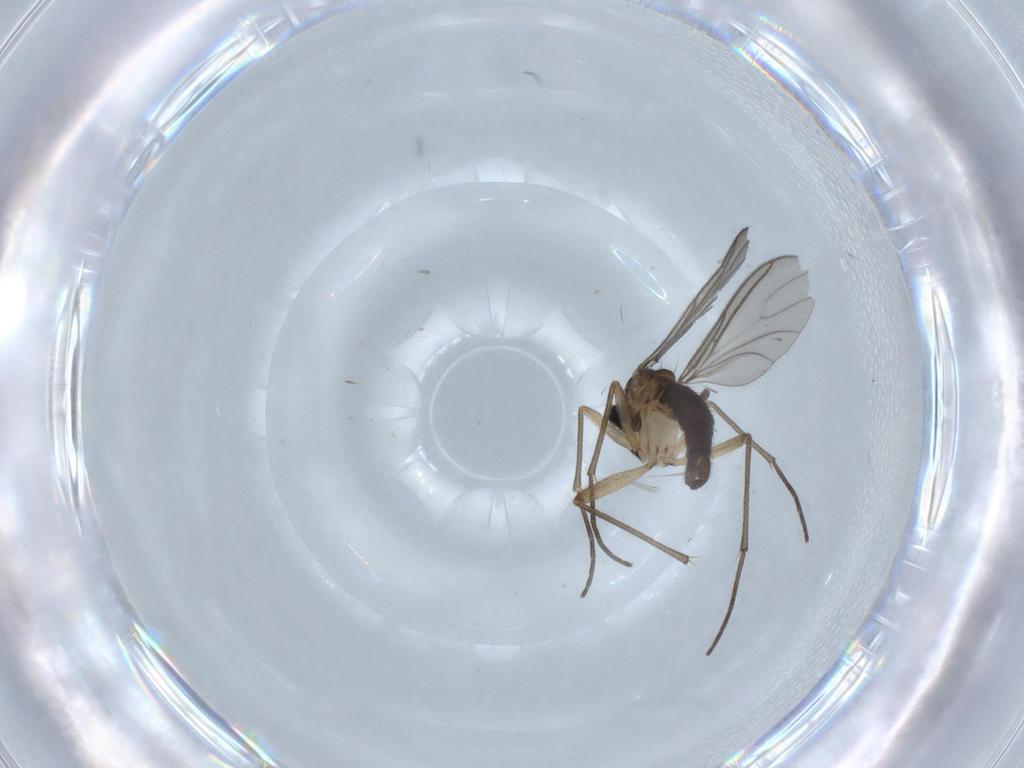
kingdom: Animalia
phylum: Arthropoda
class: Insecta
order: Diptera
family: Sciaridae
